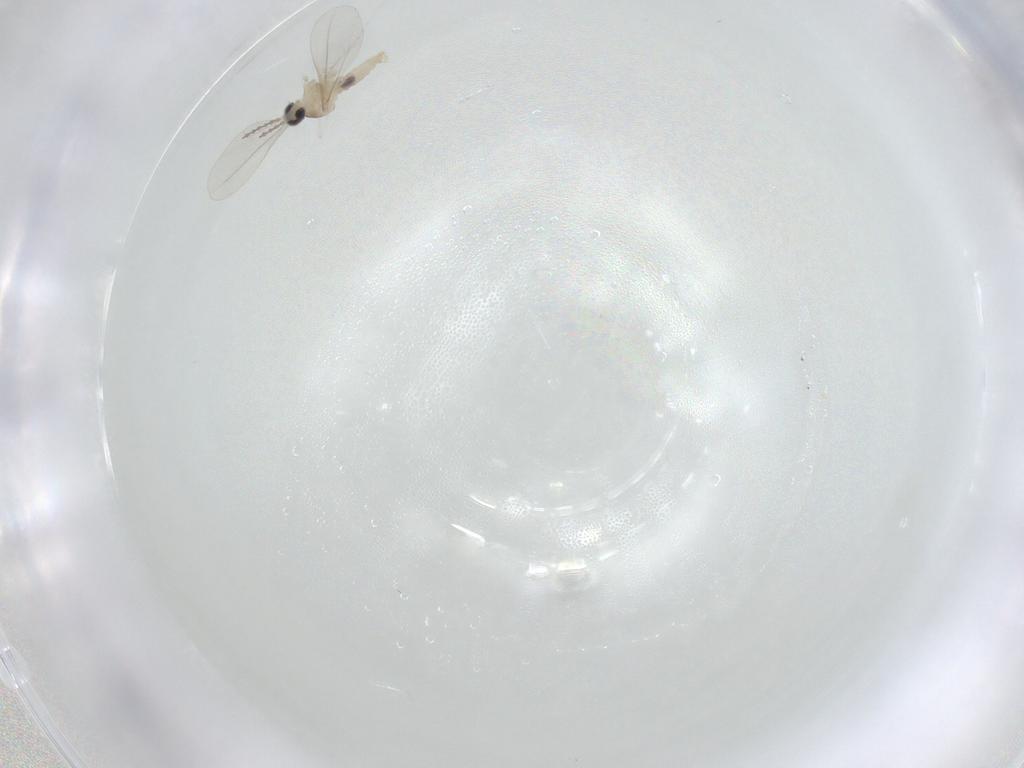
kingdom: Animalia
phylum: Arthropoda
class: Insecta
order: Diptera
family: Cecidomyiidae
